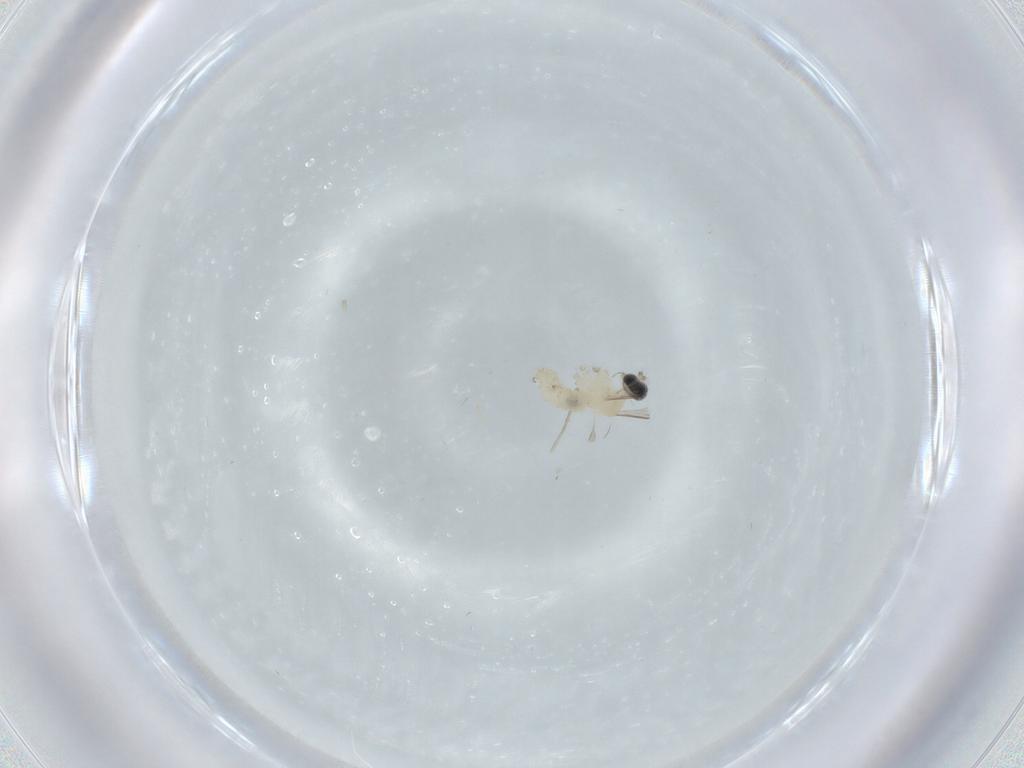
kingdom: Animalia
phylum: Arthropoda
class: Insecta
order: Diptera
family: Cecidomyiidae
